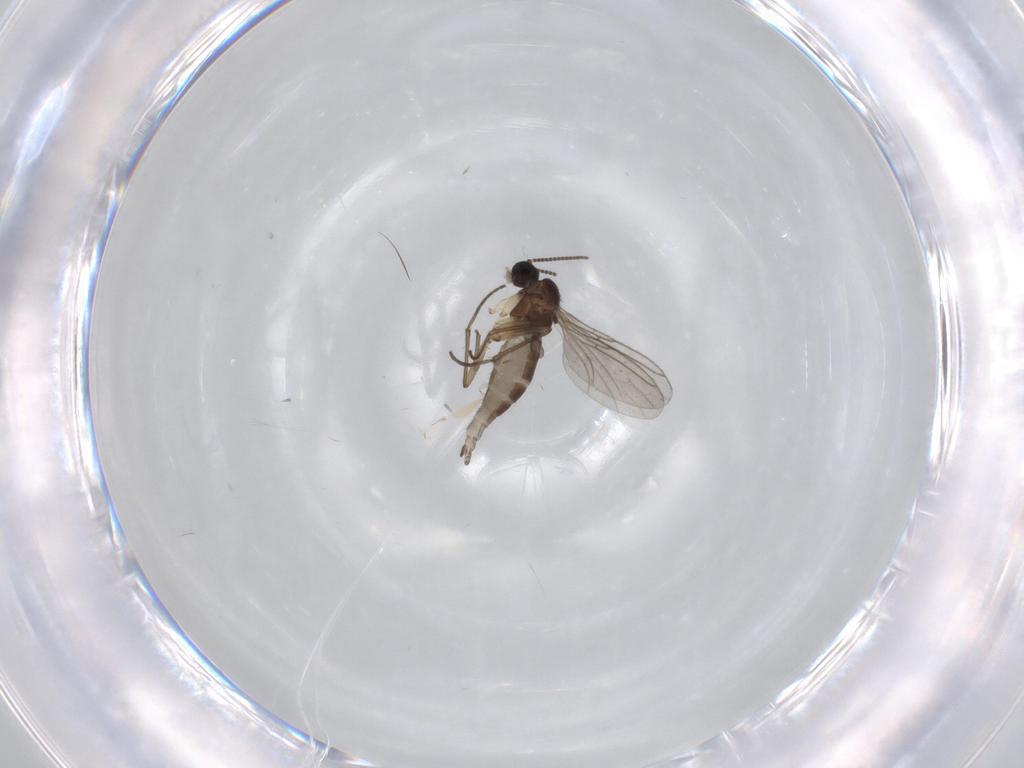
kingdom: Animalia
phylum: Arthropoda
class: Insecta
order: Diptera
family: Sciaridae
